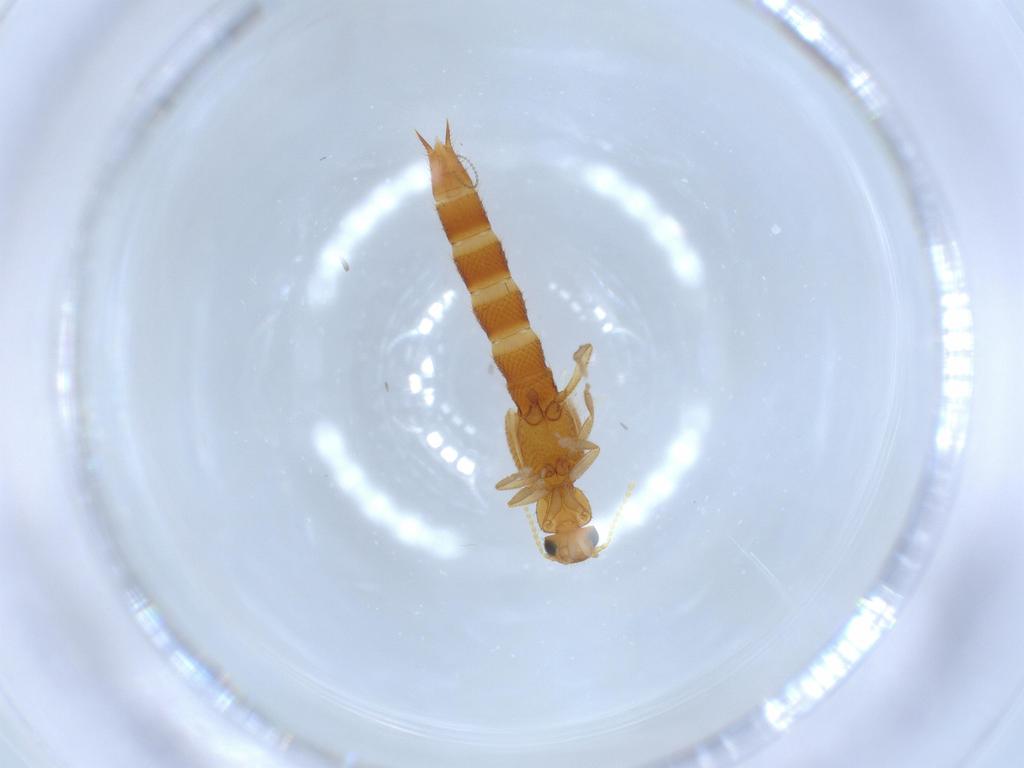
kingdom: Animalia
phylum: Arthropoda
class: Insecta
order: Coleoptera
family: Staphylinidae
